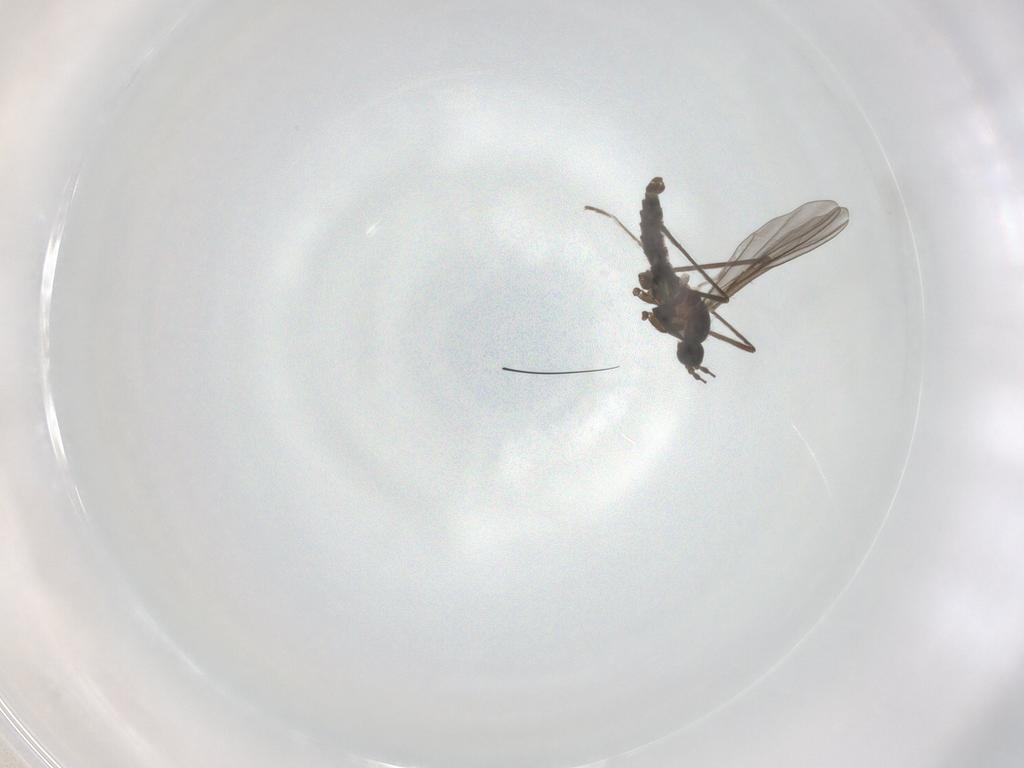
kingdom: Animalia
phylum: Arthropoda
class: Insecta
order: Diptera
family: Cecidomyiidae
